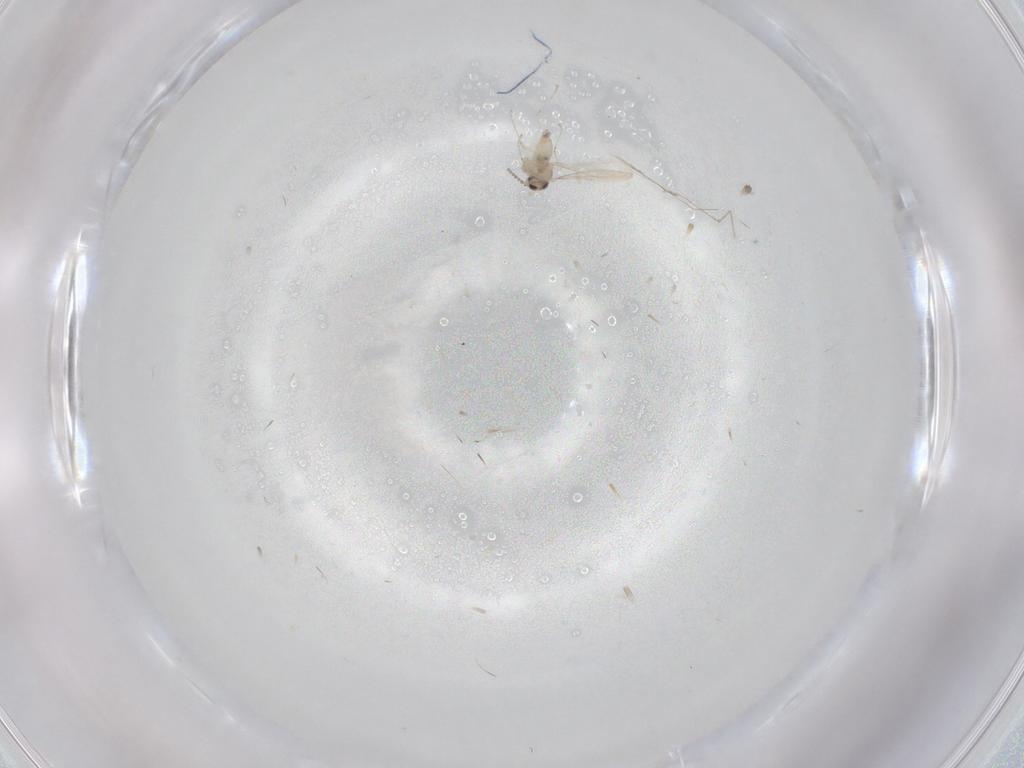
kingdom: Animalia
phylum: Arthropoda
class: Insecta
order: Diptera
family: Cecidomyiidae
